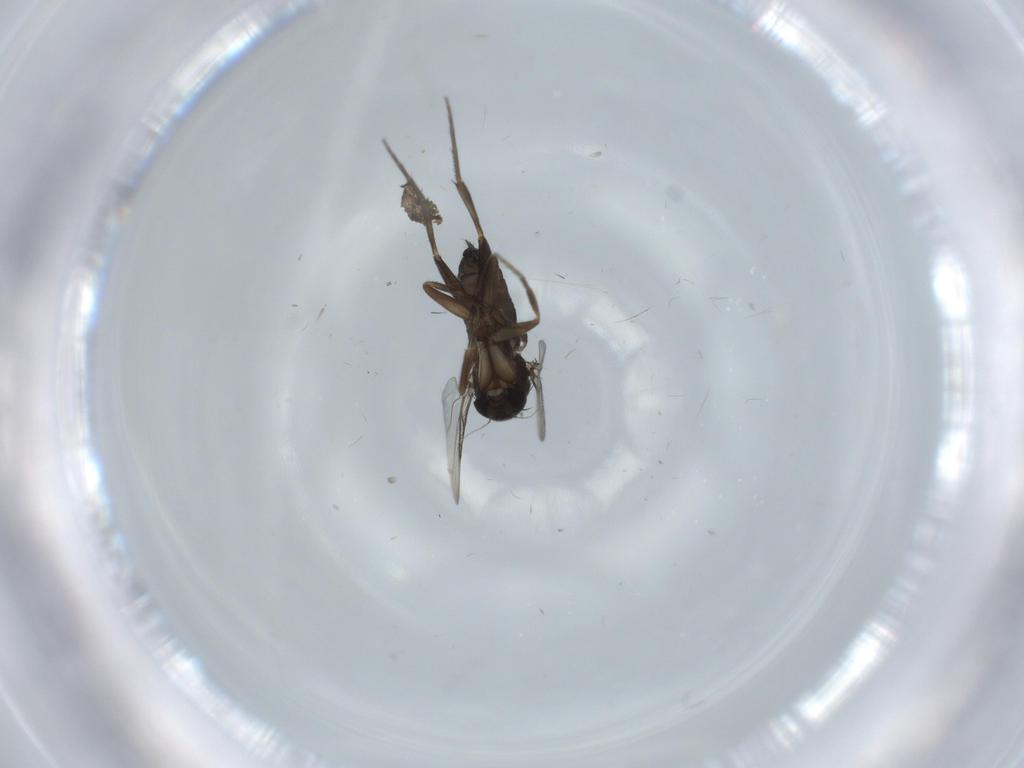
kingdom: Animalia
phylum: Arthropoda
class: Insecta
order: Diptera
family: Phoridae
